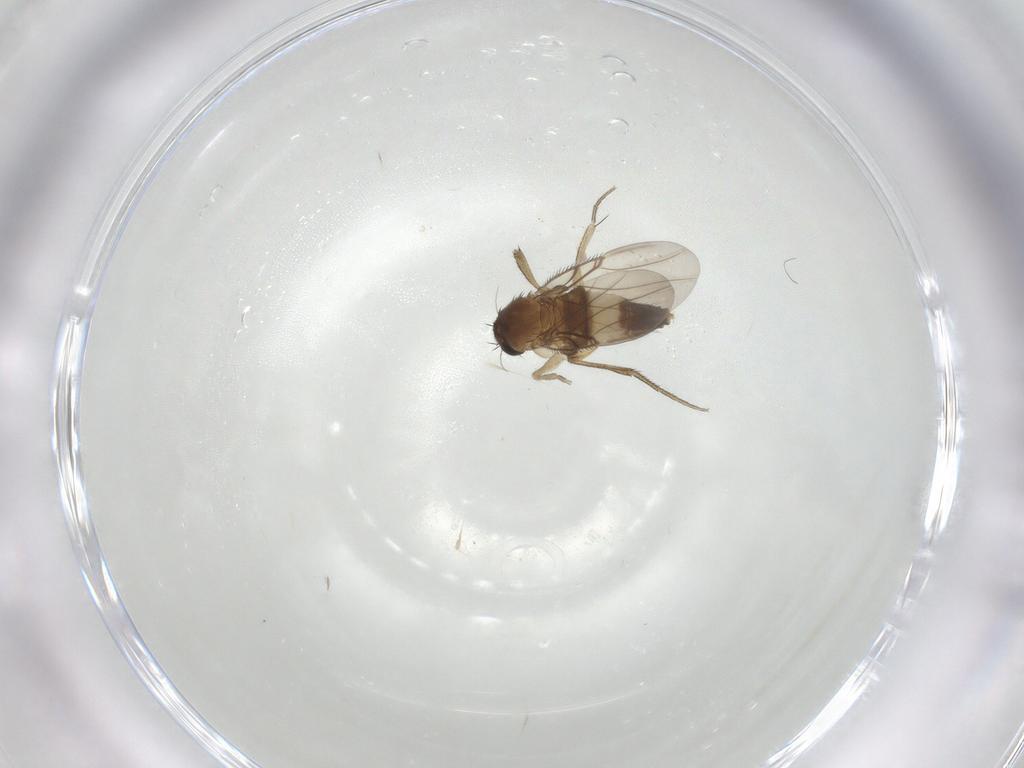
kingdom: Animalia
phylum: Arthropoda
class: Insecta
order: Diptera
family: Phoridae
